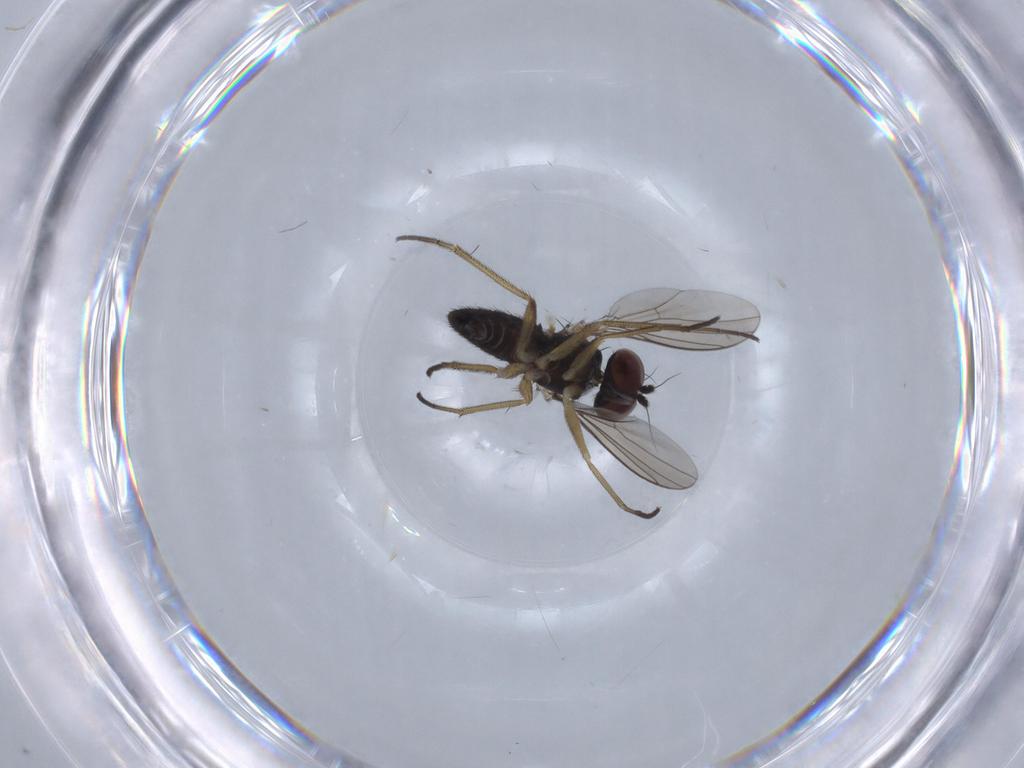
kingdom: Animalia
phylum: Arthropoda
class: Insecta
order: Diptera
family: Dolichopodidae
